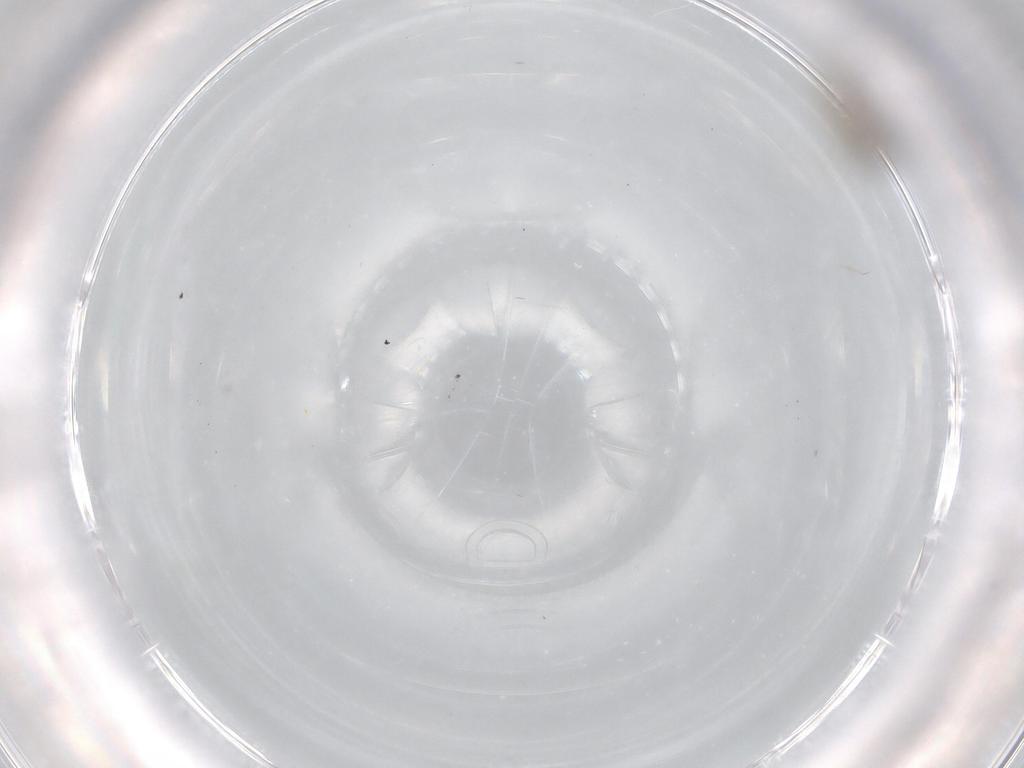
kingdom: Animalia
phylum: Arthropoda
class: Insecta
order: Diptera
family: Cecidomyiidae
